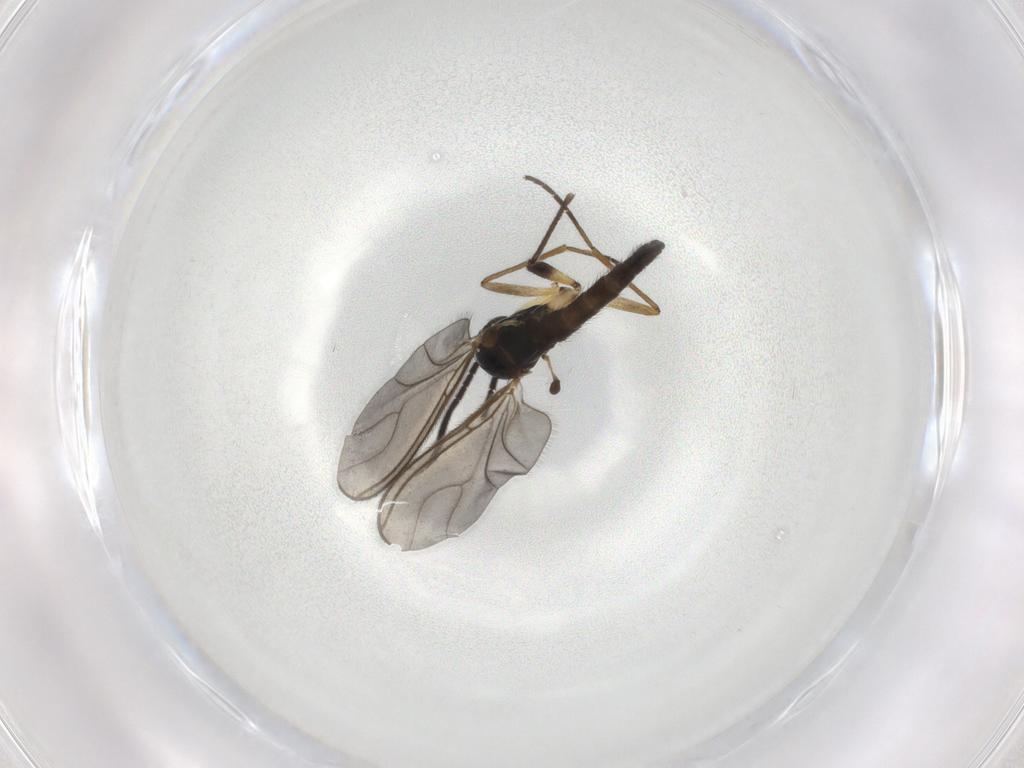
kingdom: Animalia
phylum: Arthropoda
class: Insecta
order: Diptera
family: Sciaridae
